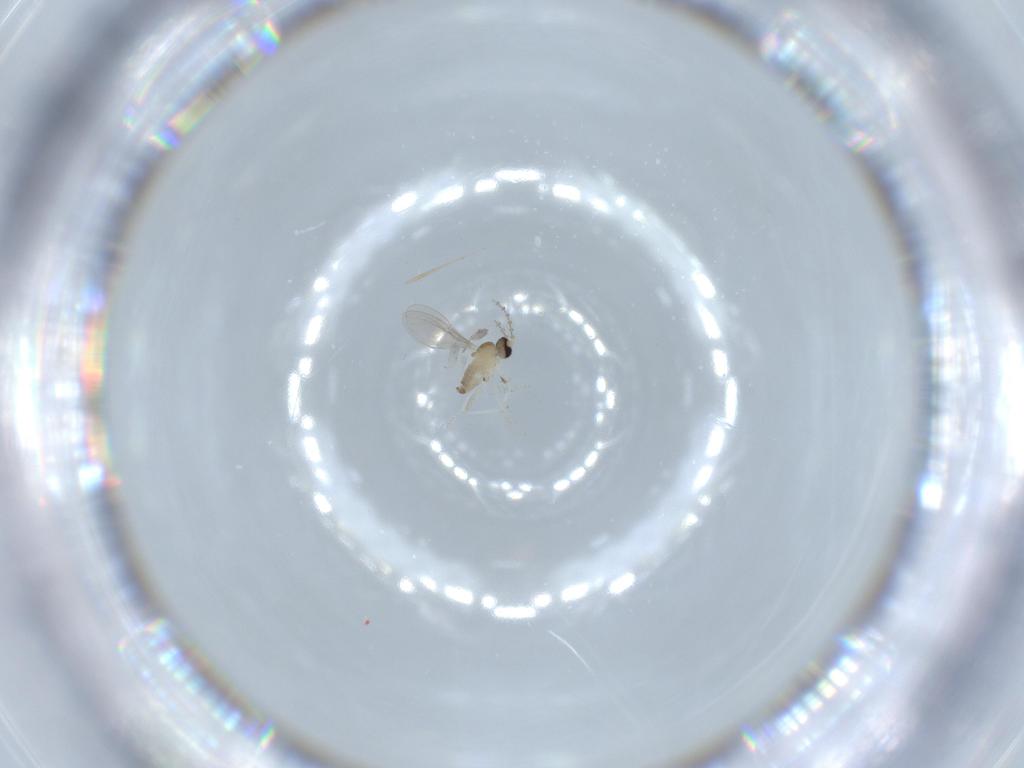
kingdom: Animalia
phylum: Arthropoda
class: Insecta
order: Diptera
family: Cecidomyiidae
